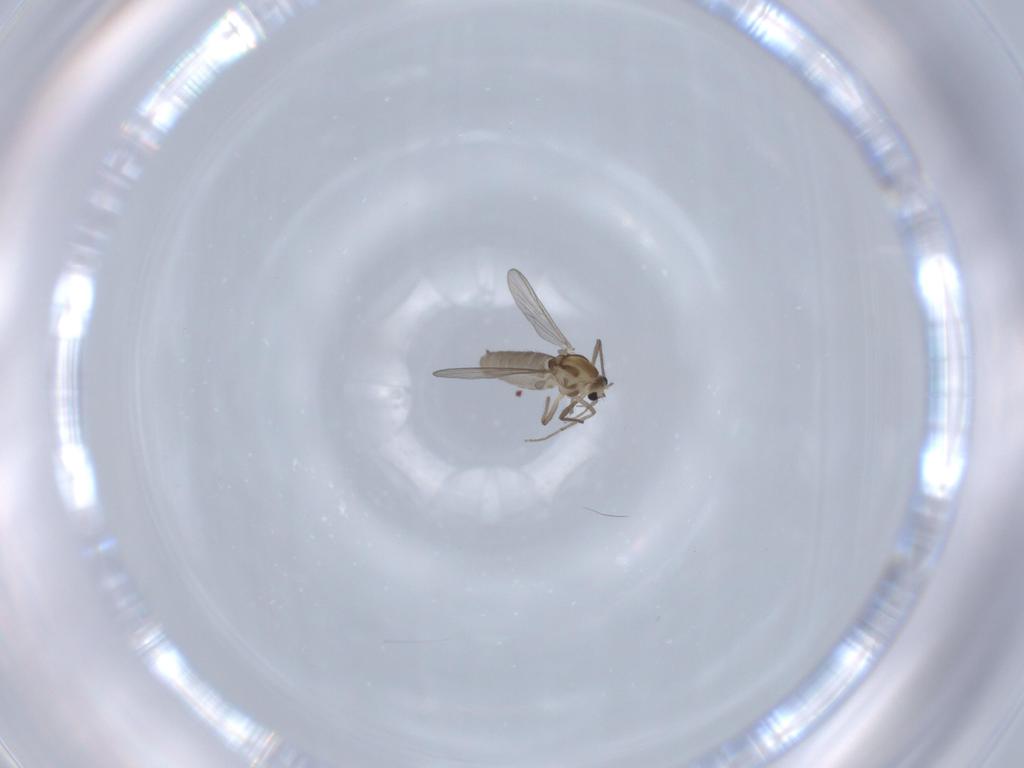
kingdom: Animalia
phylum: Arthropoda
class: Insecta
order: Diptera
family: Chironomidae
